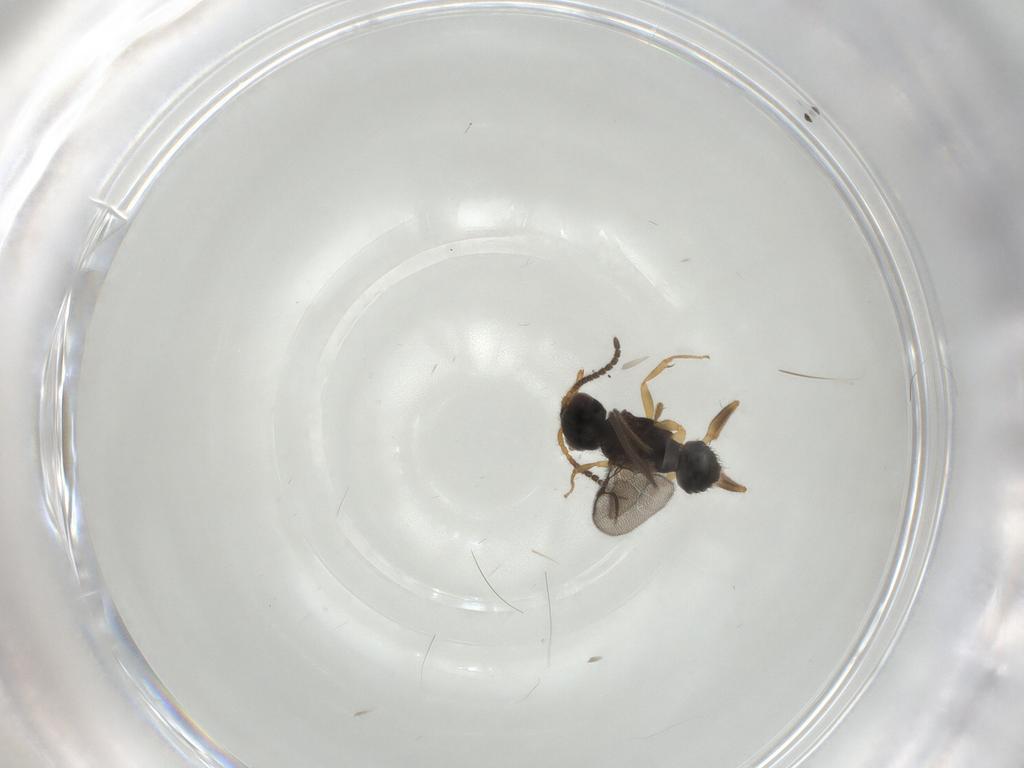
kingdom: Animalia
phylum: Arthropoda
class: Insecta
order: Hymenoptera
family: Bethylidae
